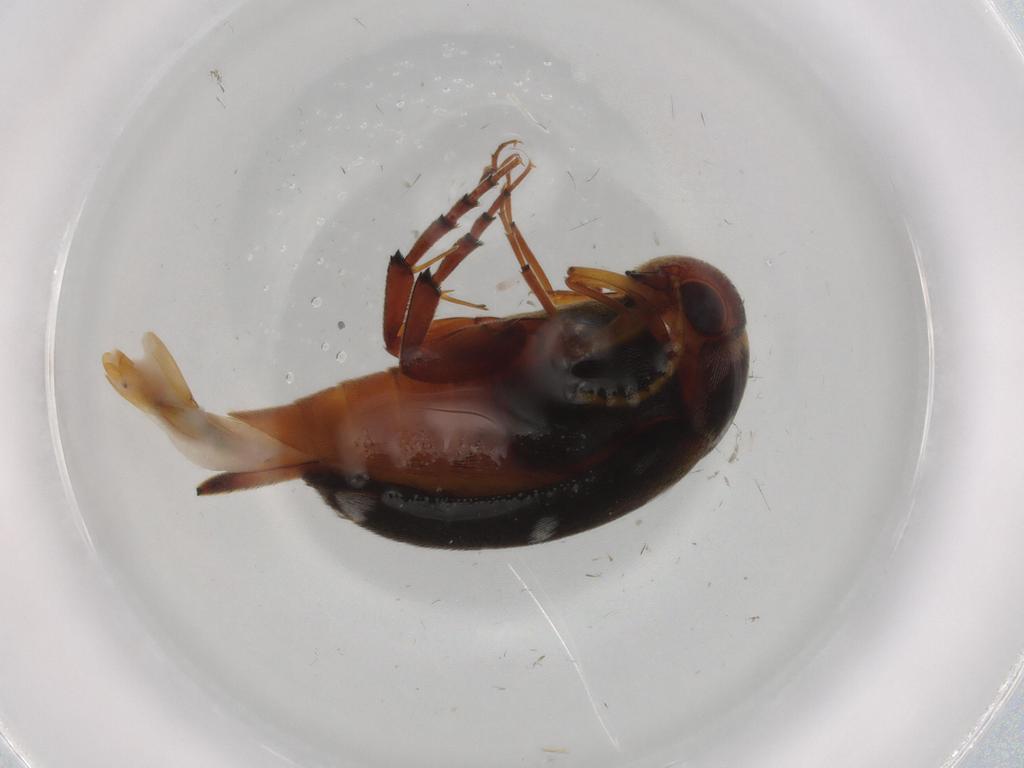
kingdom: Animalia
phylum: Arthropoda
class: Insecta
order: Coleoptera
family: Mordellidae
